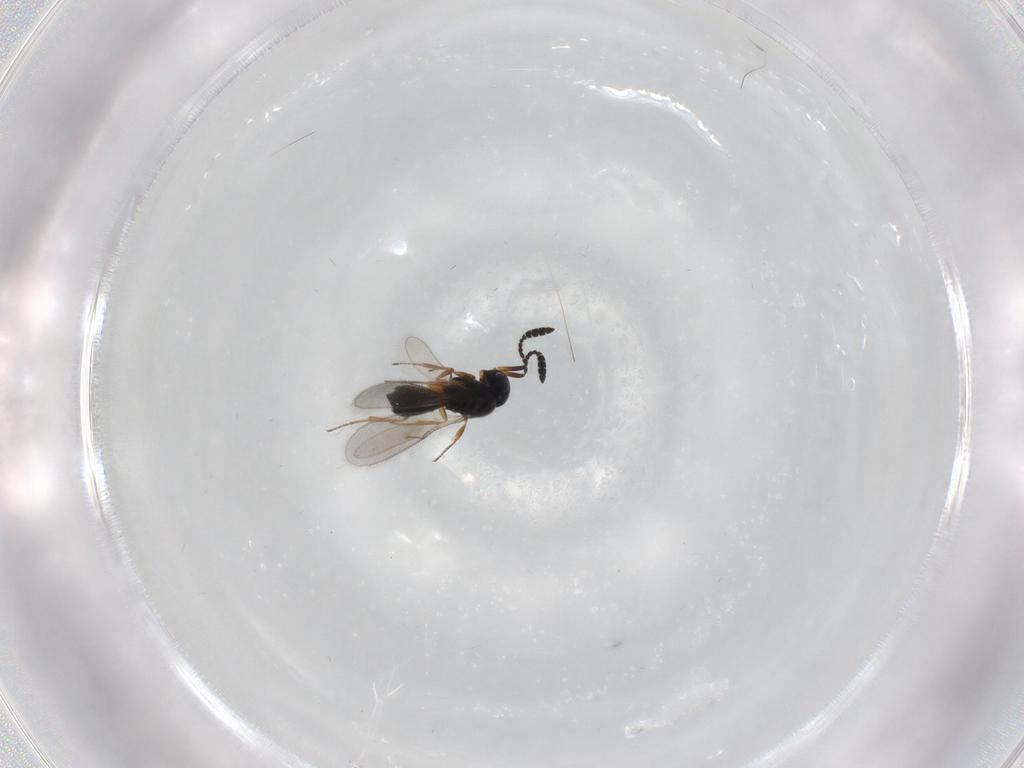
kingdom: Animalia
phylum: Arthropoda
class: Insecta
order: Hymenoptera
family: Scelionidae
